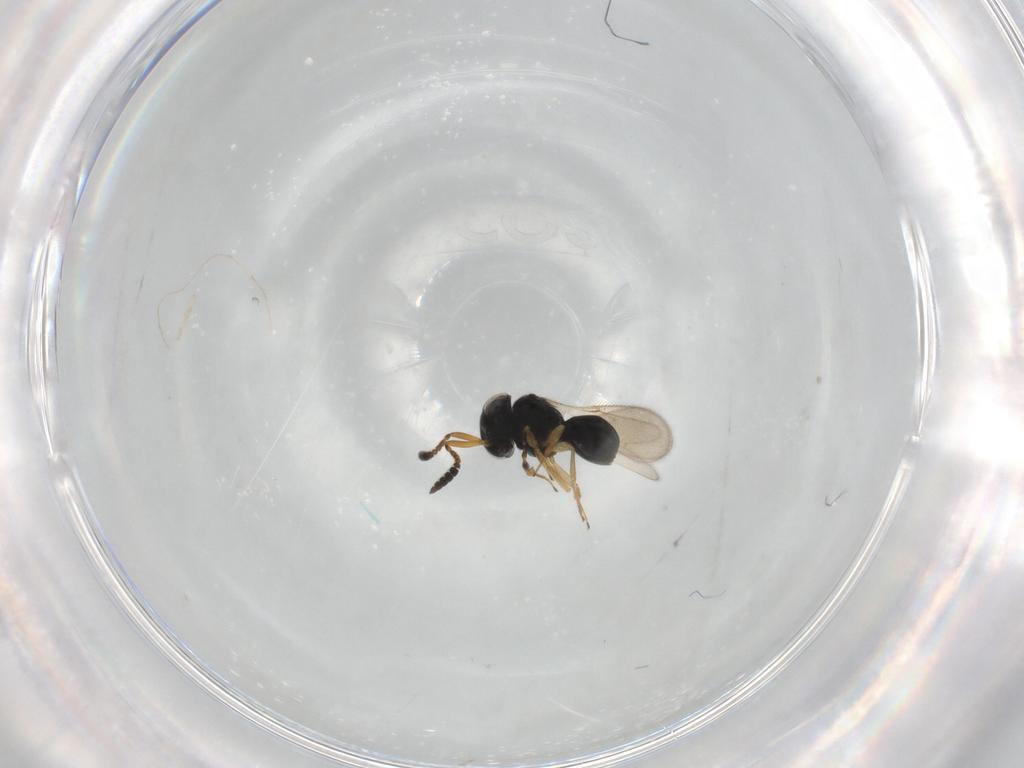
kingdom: Animalia
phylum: Arthropoda
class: Insecta
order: Hymenoptera
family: Scelionidae
